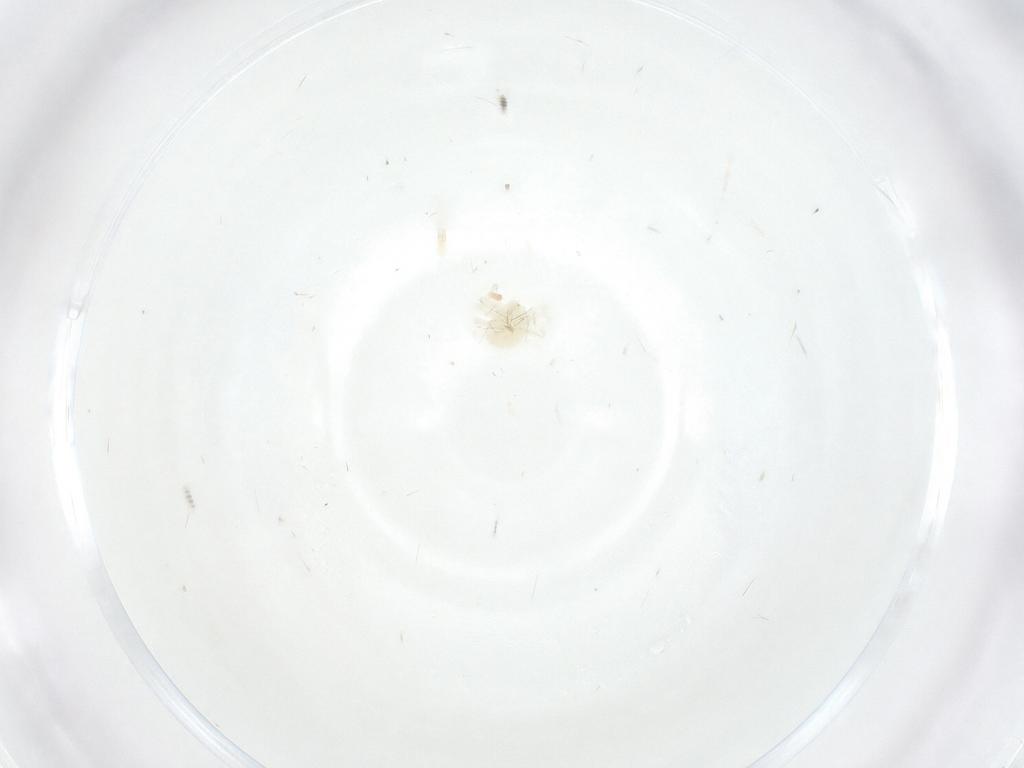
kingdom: Animalia
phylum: Arthropoda
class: Arachnida
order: Trombidiformes
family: Anystidae
